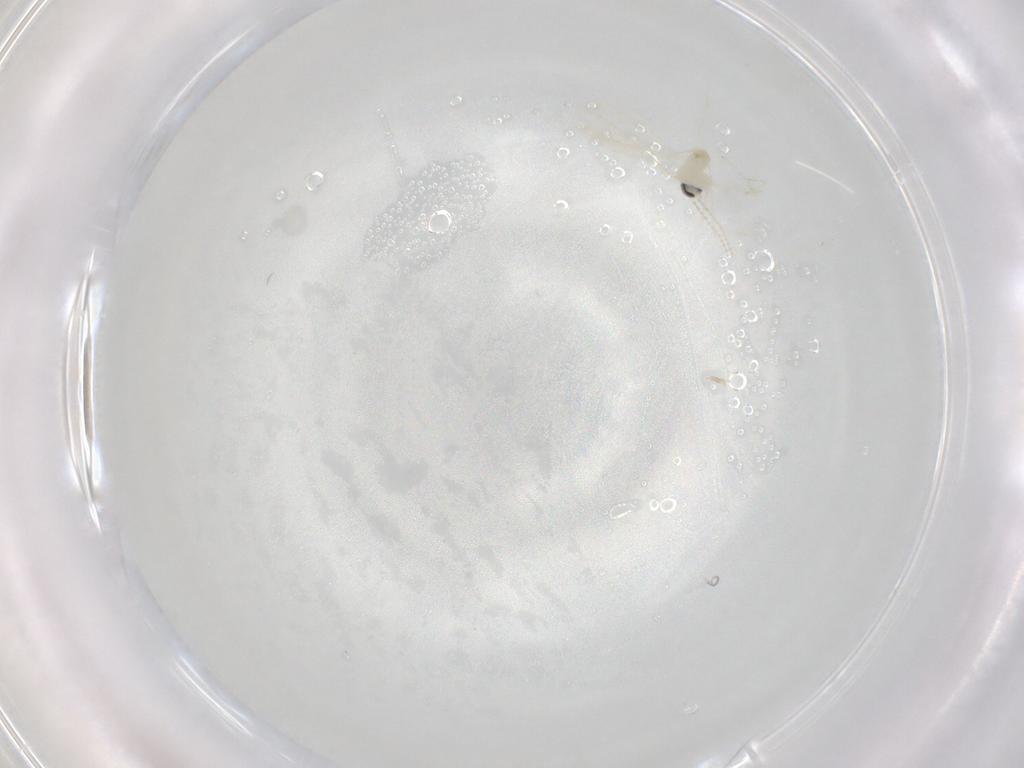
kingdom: Animalia
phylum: Arthropoda
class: Insecta
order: Diptera
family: Cecidomyiidae
